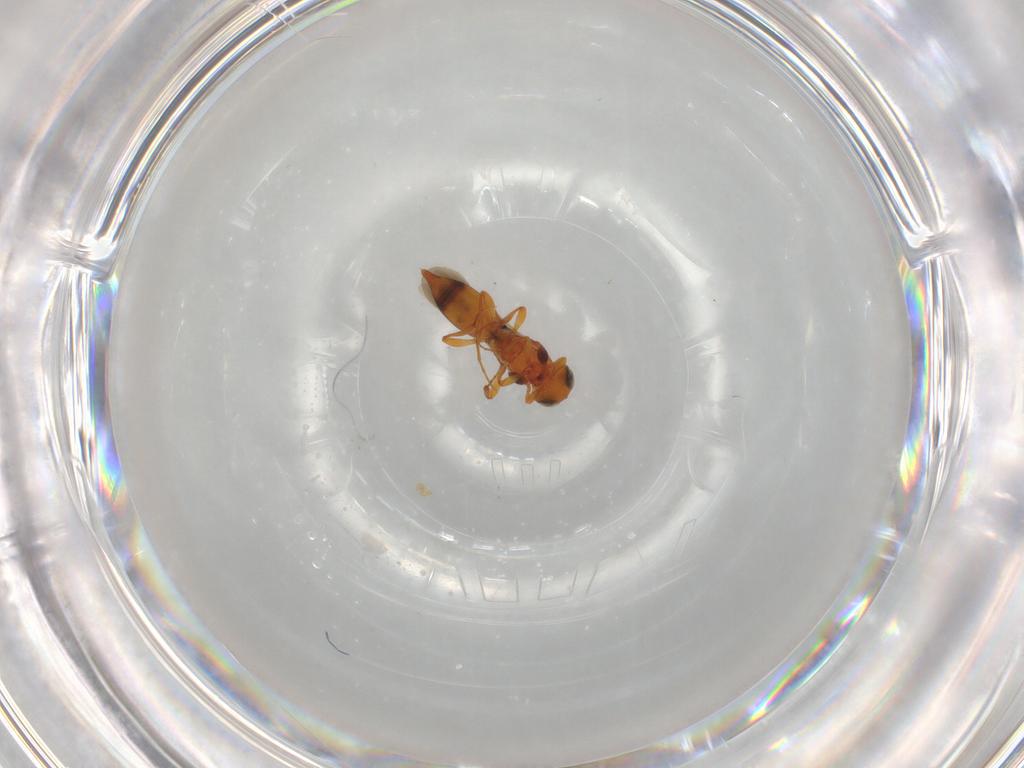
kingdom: Animalia
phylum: Arthropoda
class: Insecta
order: Hymenoptera
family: Platygastridae
